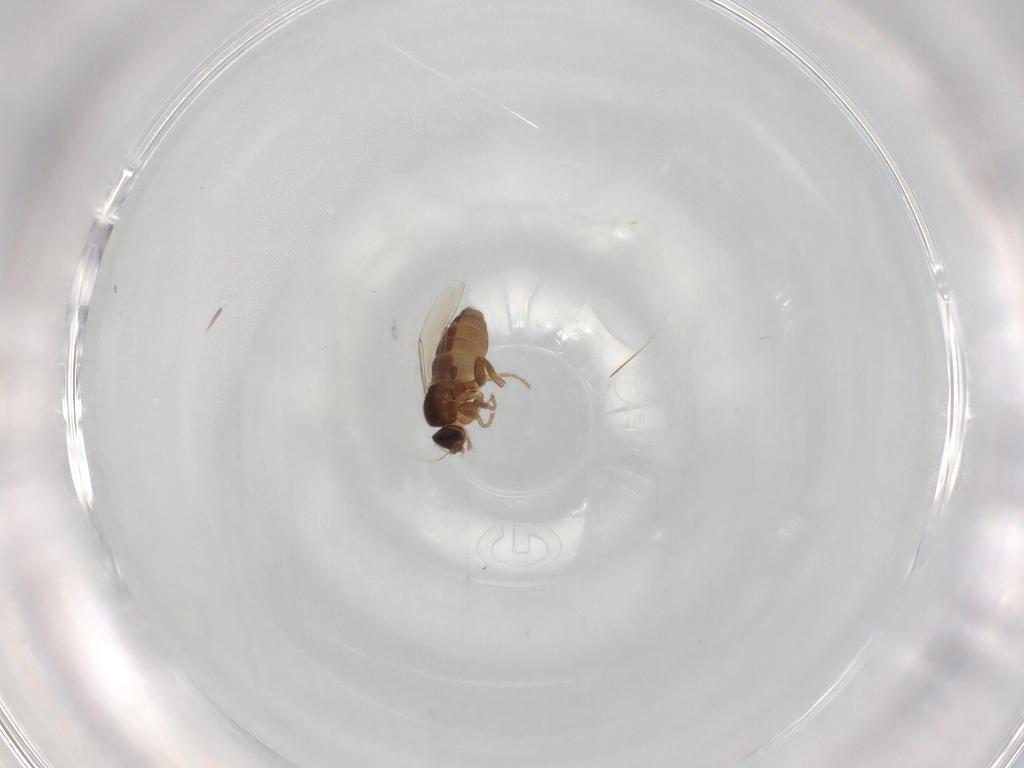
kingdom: Animalia
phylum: Arthropoda
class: Insecta
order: Diptera
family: Cecidomyiidae
